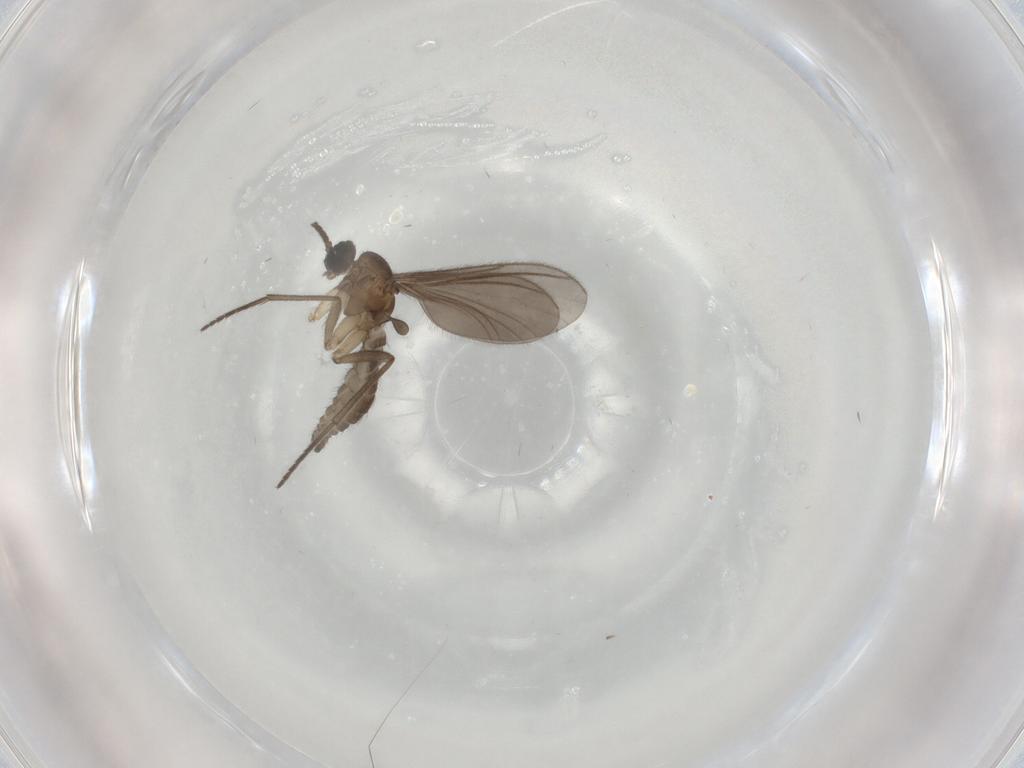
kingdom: Animalia
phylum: Arthropoda
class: Insecta
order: Diptera
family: Sciaridae
